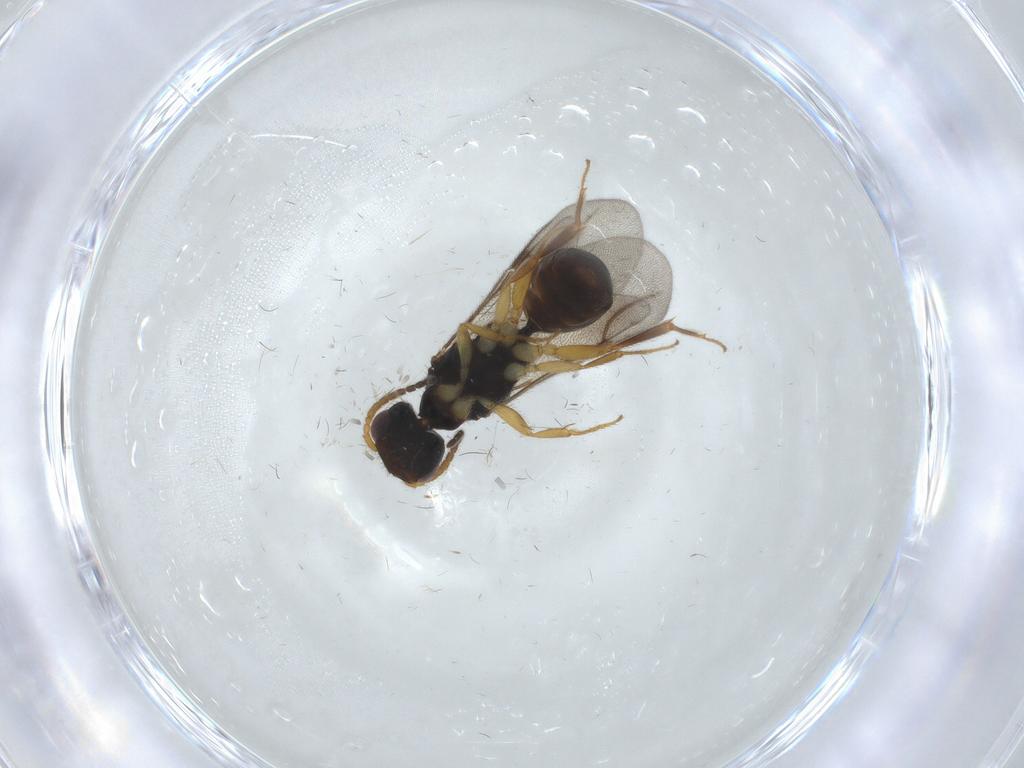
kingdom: Animalia
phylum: Arthropoda
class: Insecta
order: Hymenoptera
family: Bethylidae
